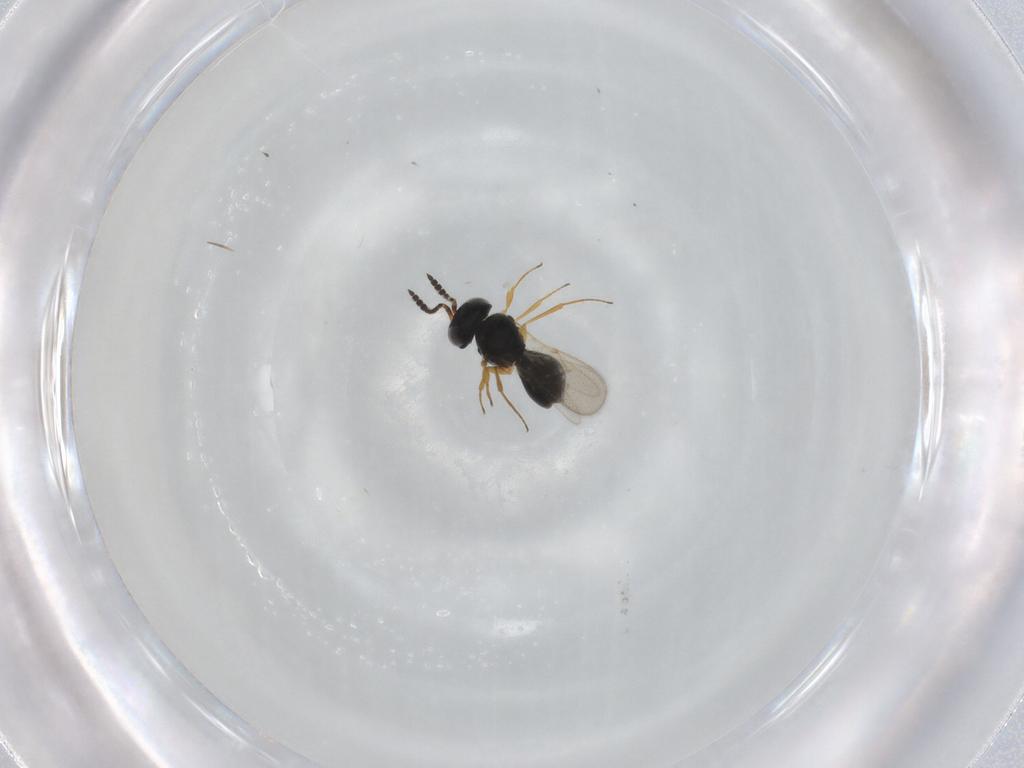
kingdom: Animalia
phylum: Arthropoda
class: Insecta
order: Hymenoptera
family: Scelionidae
